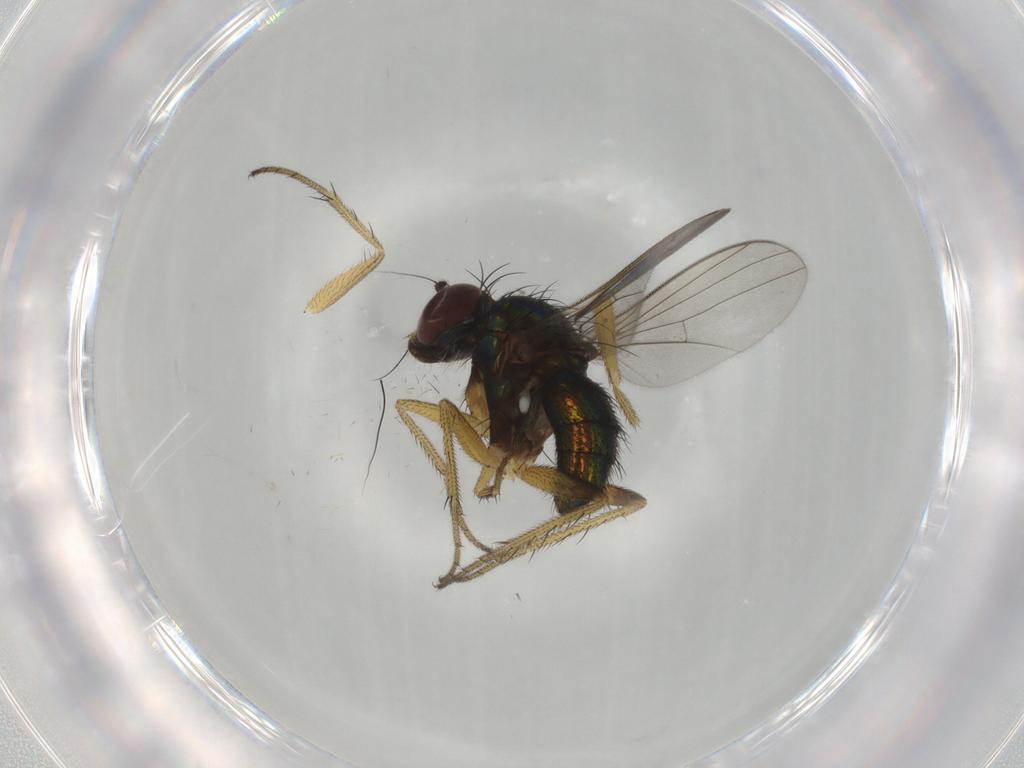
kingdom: Animalia
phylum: Arthropoda
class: Insecta
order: Diptera
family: Dolichopodidae
